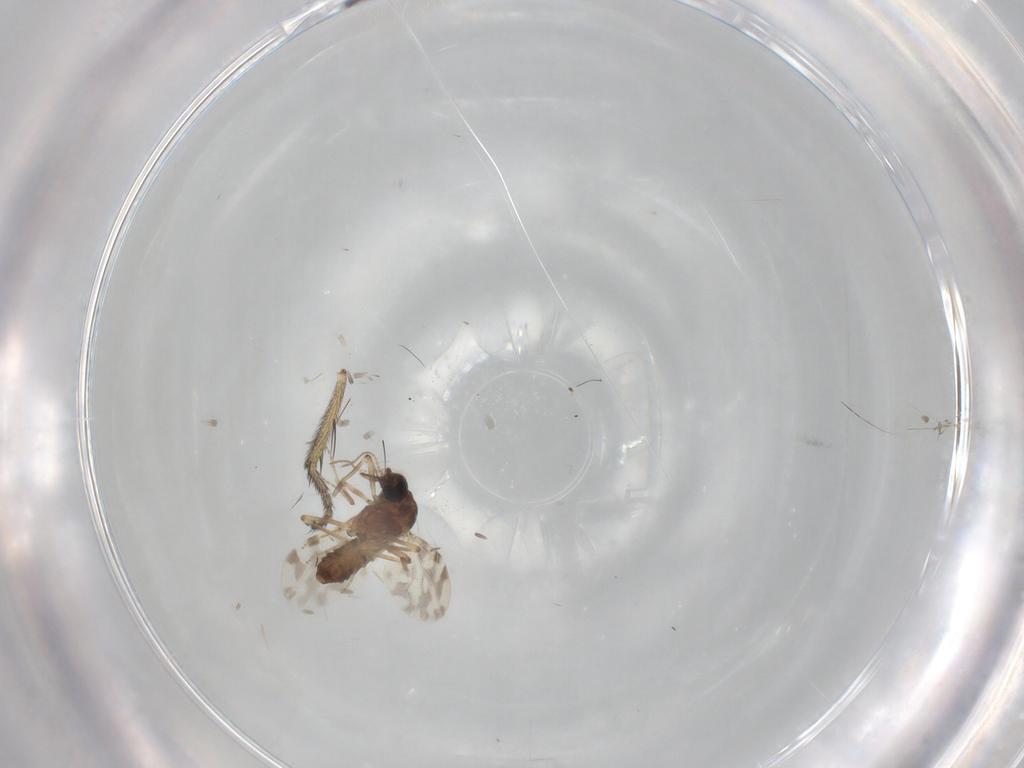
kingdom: Animalia
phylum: Arthropoda
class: Insecta
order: Diptera
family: Muscidae
